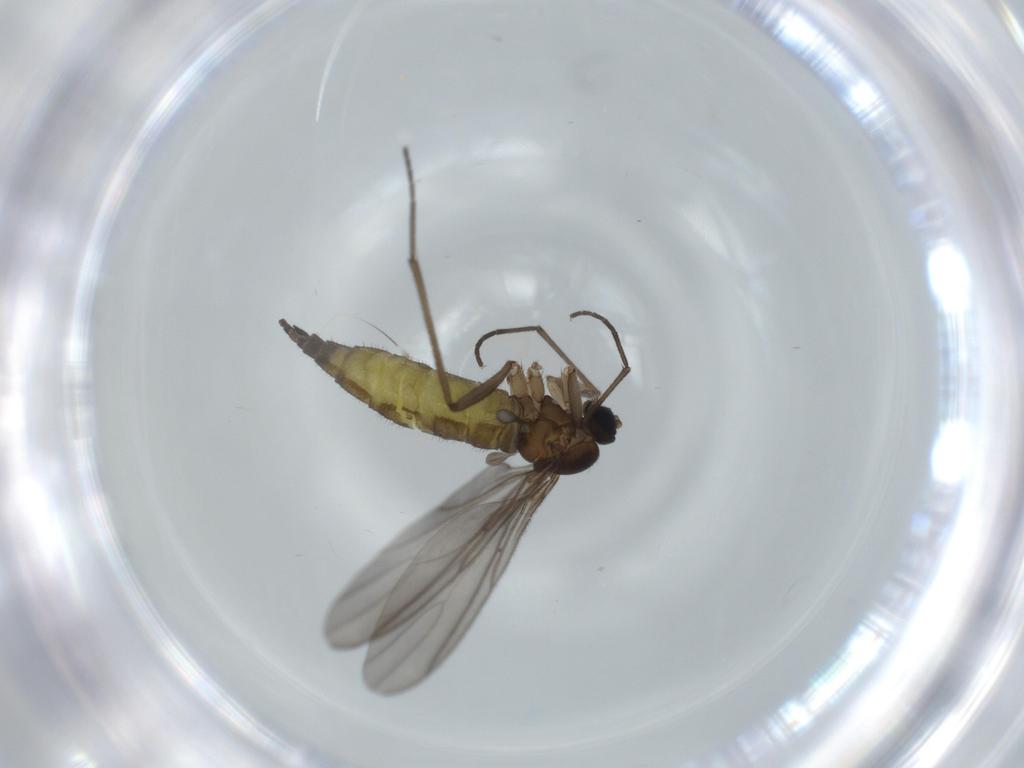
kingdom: Animalia
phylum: Arthropoda
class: Insecta
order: Diptera
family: Sciaridae
